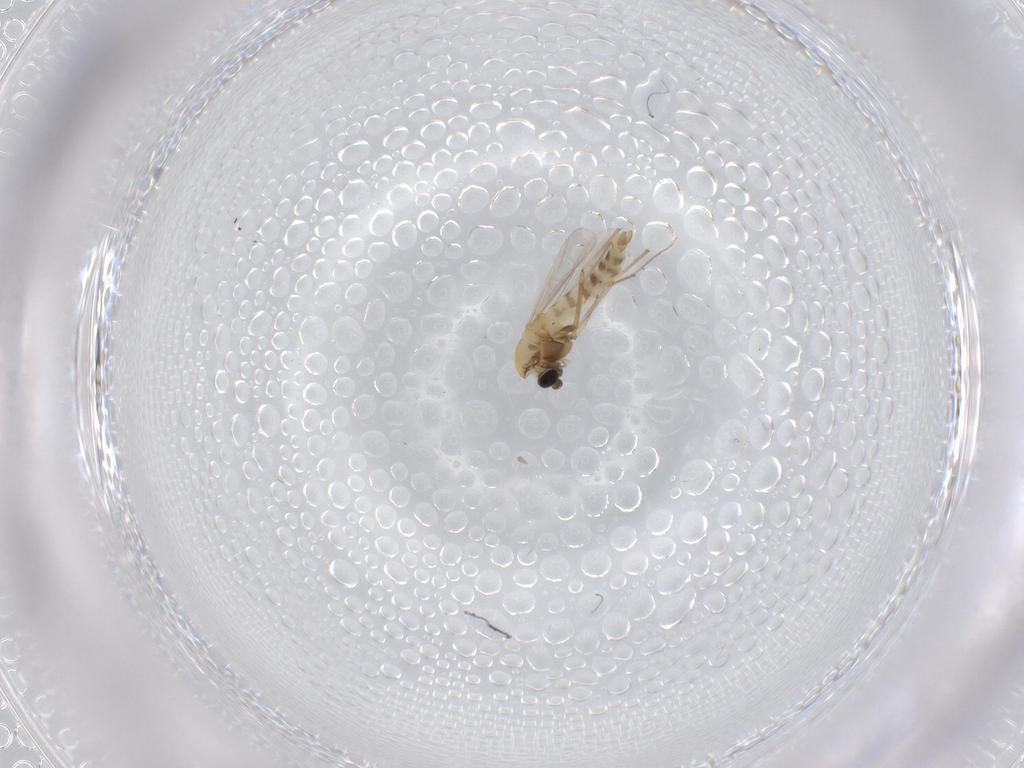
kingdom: Animalia
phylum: Arthropoda
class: Insecta
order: Diptera
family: Chironomidae
